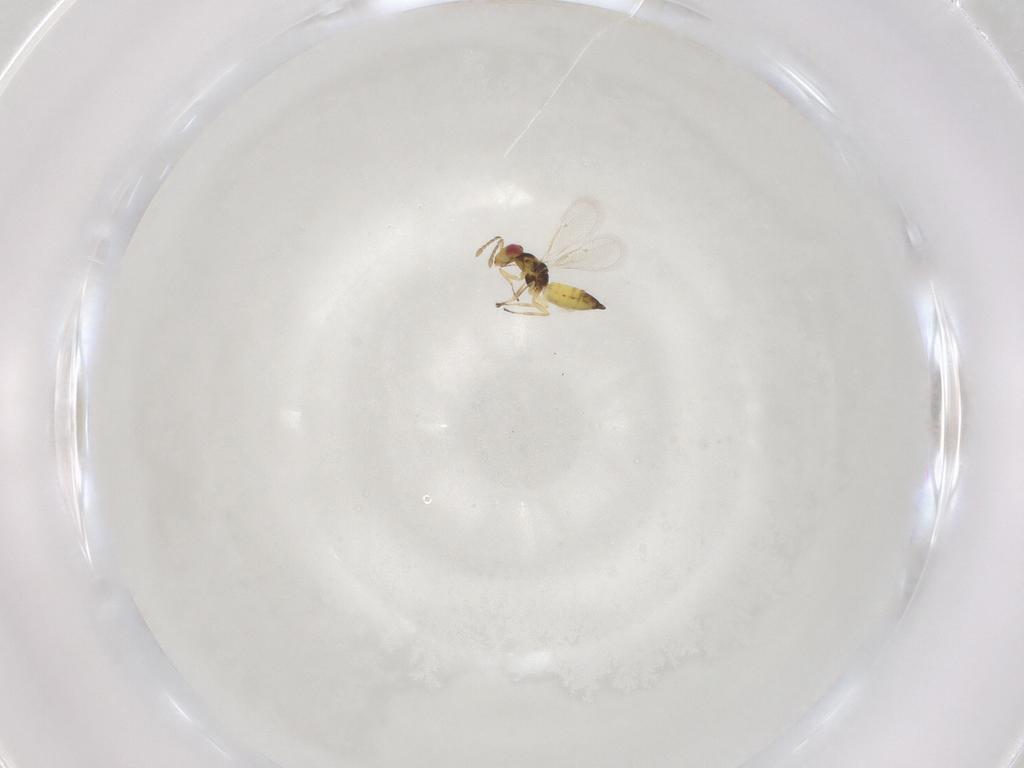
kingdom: Animalia
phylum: Arthropoda
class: Insecta
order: Hymenoptera
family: Eulophidae
